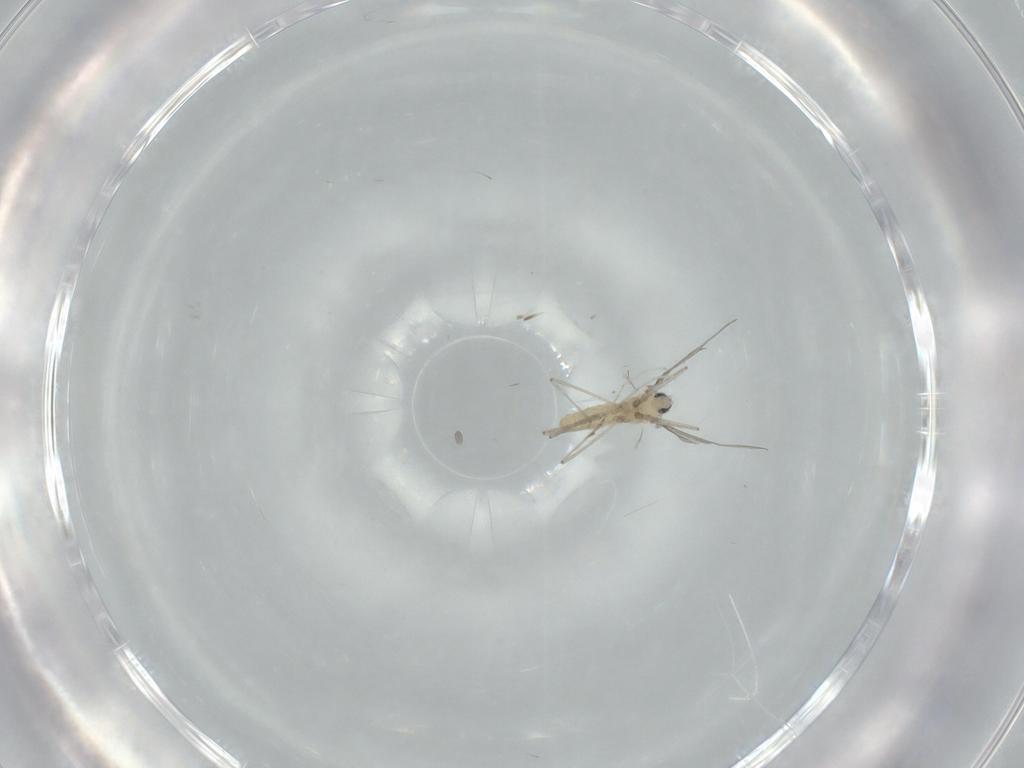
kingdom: Animalia
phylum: Arthropoda
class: Insecta
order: Diptera
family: Cecidomyiidae
